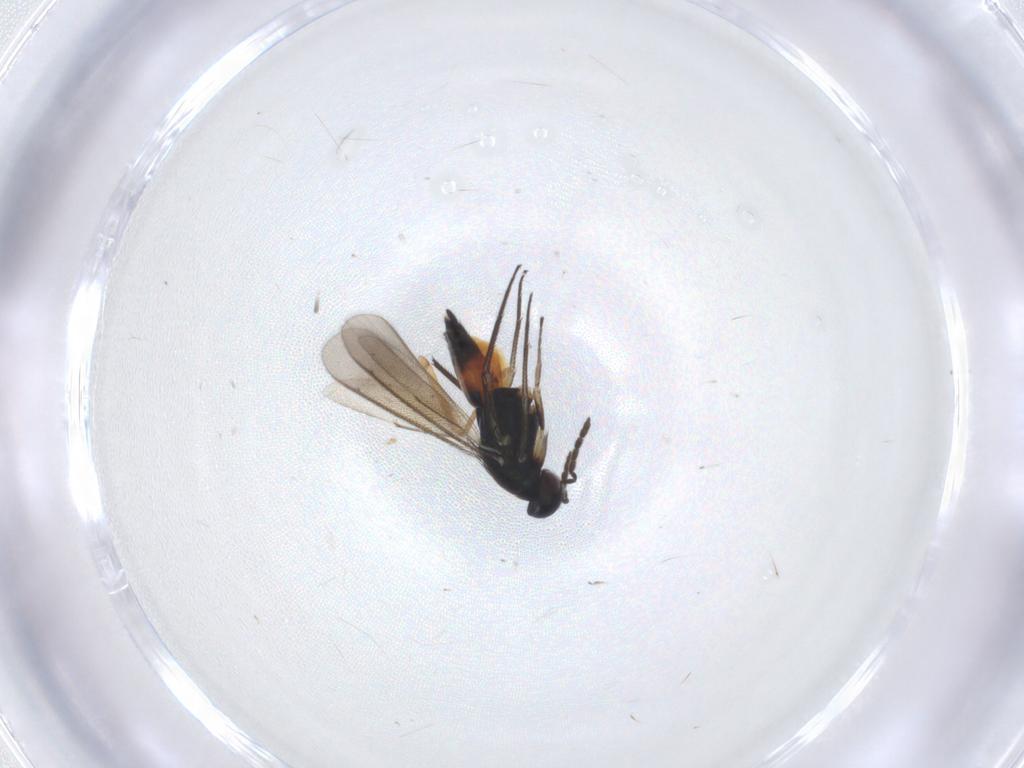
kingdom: Animalia
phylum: Arthropoda
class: Insecta
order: Hymenoptera
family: Eulophidae
